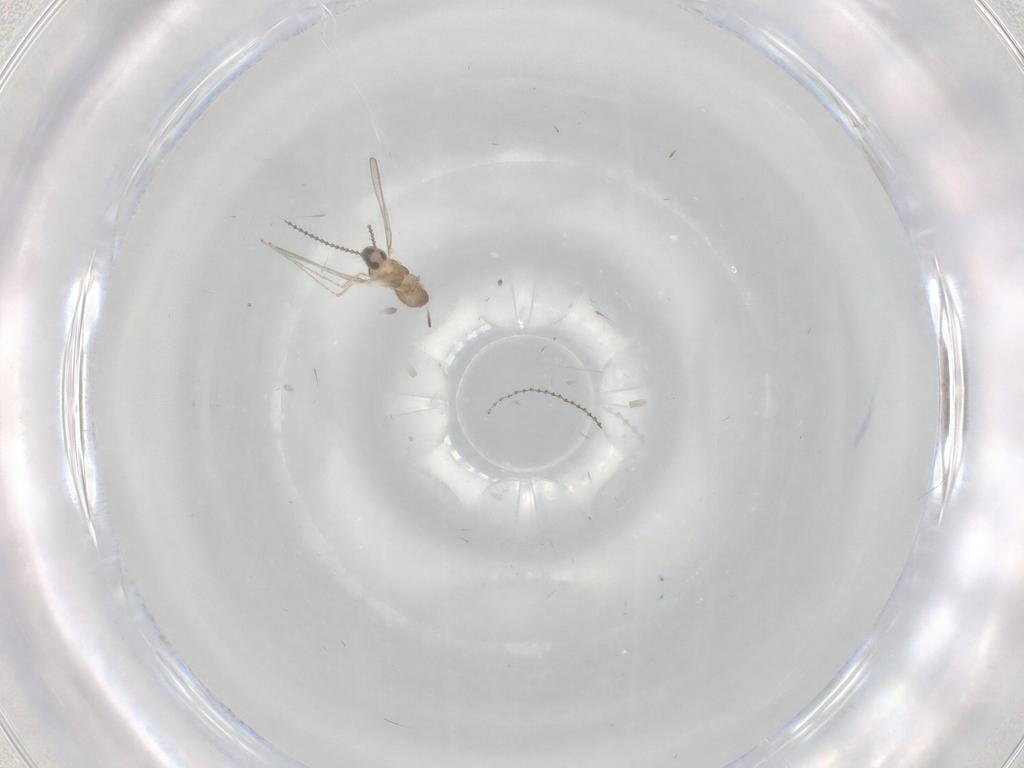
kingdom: Animalia
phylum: Arthropoda
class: Insecta
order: Diptera
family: Cecidomyiidae
